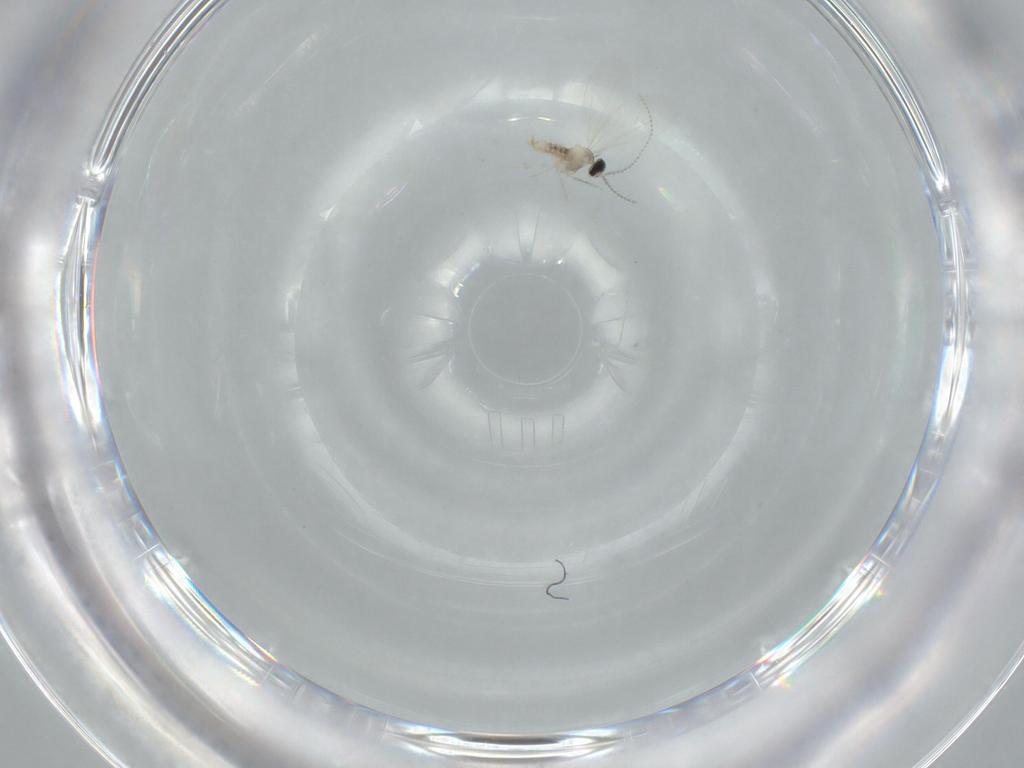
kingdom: Animalia
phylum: Arthropoda
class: Insecta
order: Diptera
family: Cecidomyiidae
